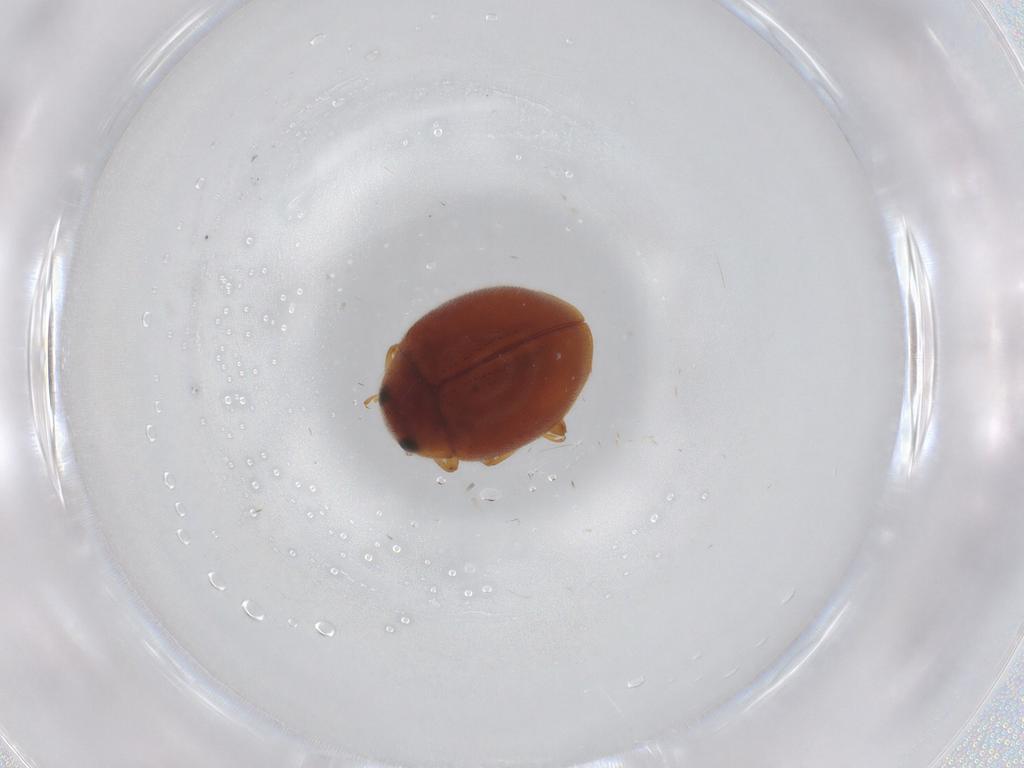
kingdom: Animalia
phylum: Arthropoda
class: Insecta
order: Coleoptera
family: Coccinellidae
